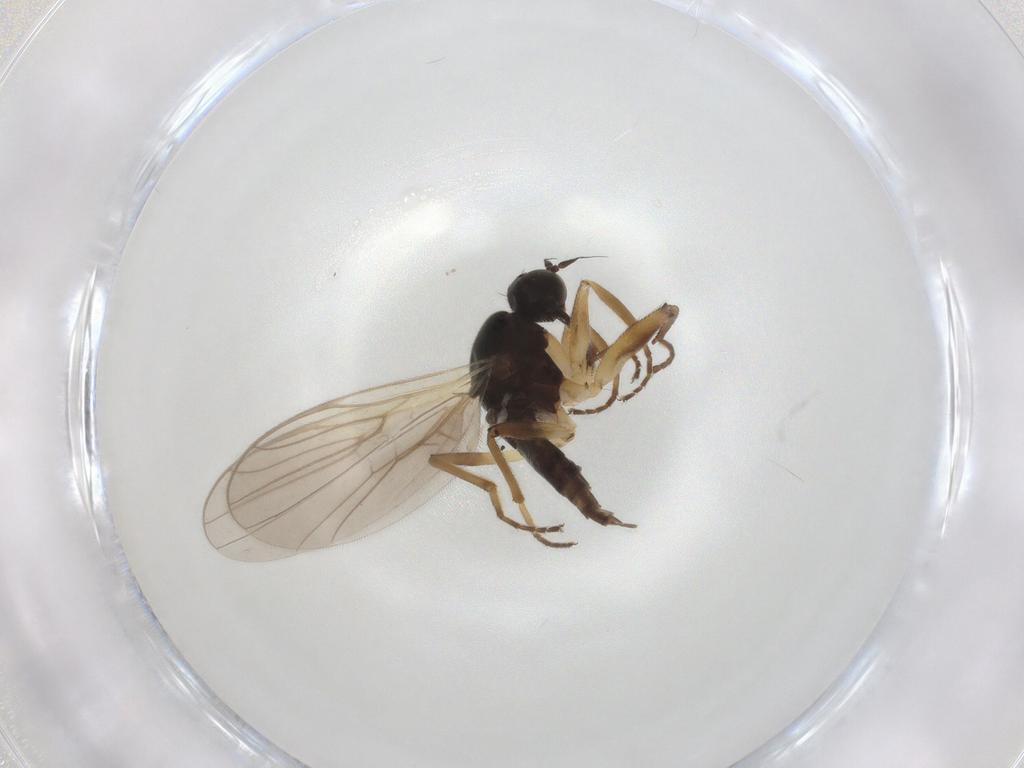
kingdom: Animalia
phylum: Arthropoda
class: Insecta
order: Diptera
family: Hybotidae
